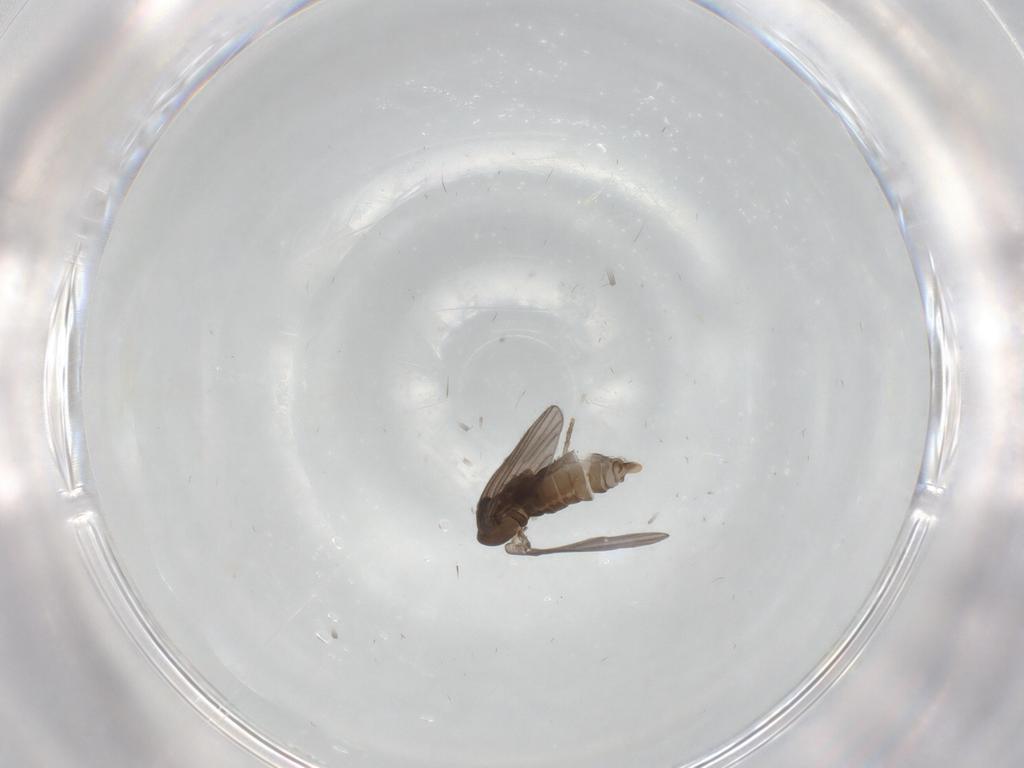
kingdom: Animalia
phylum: Arthropoda
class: Insecta
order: Diptera
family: Psychodidae
